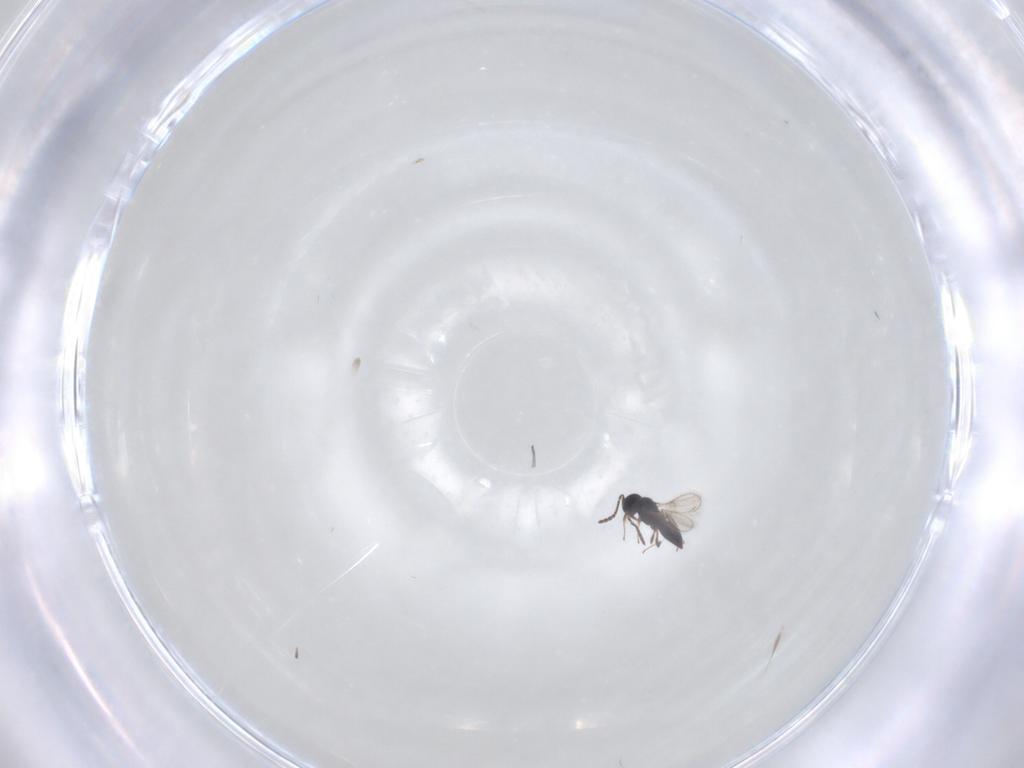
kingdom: Animalia
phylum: Arthropoda
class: Insecta
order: Hymenoptera
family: Scelionidae
